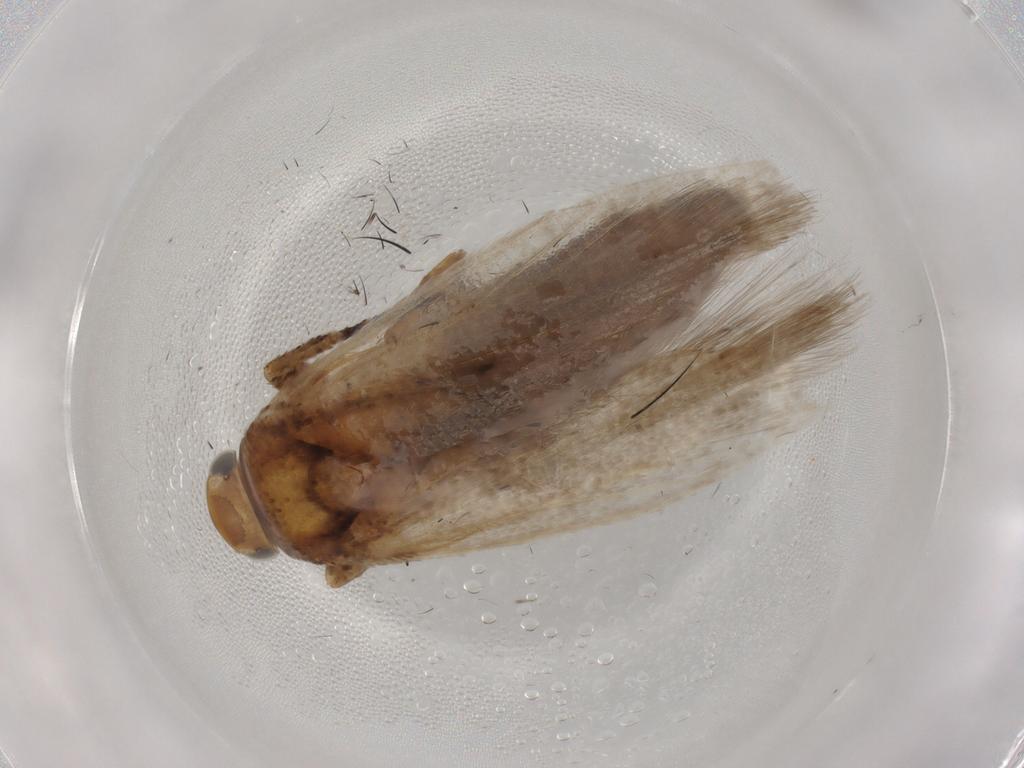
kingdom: Animalia
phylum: Arthropoda
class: Insecta
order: Lepidoptera
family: Gelechiidae
